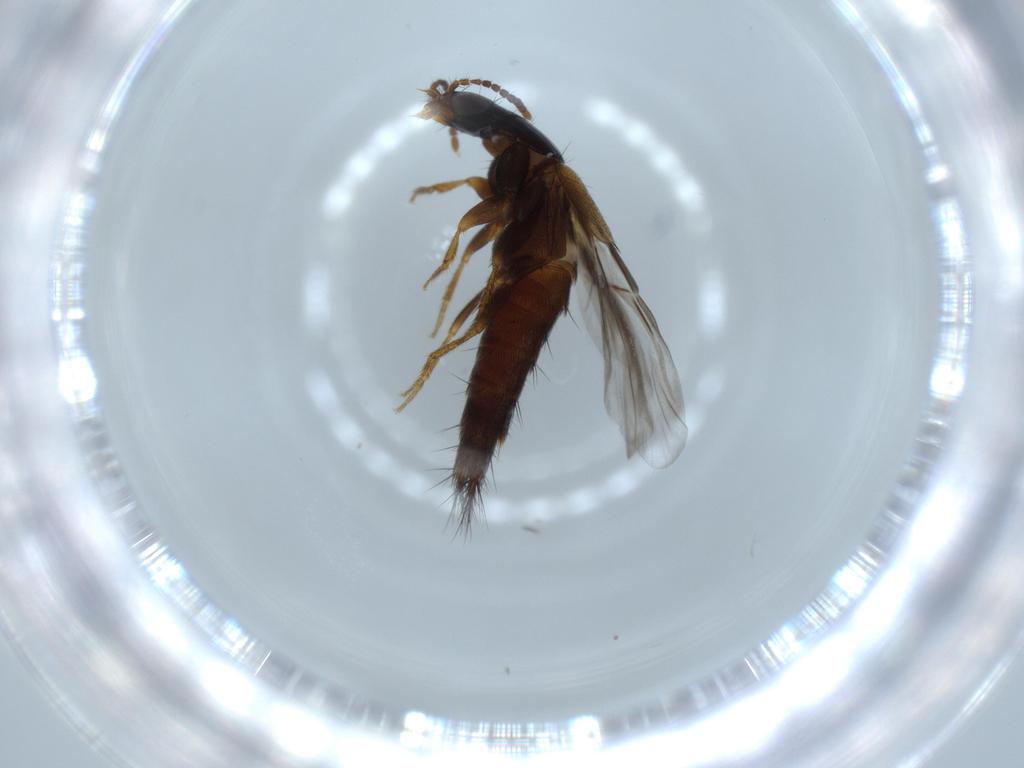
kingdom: Animalia
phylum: Arthropoda
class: Insecta
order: Coleoptera
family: Staphylinidae
